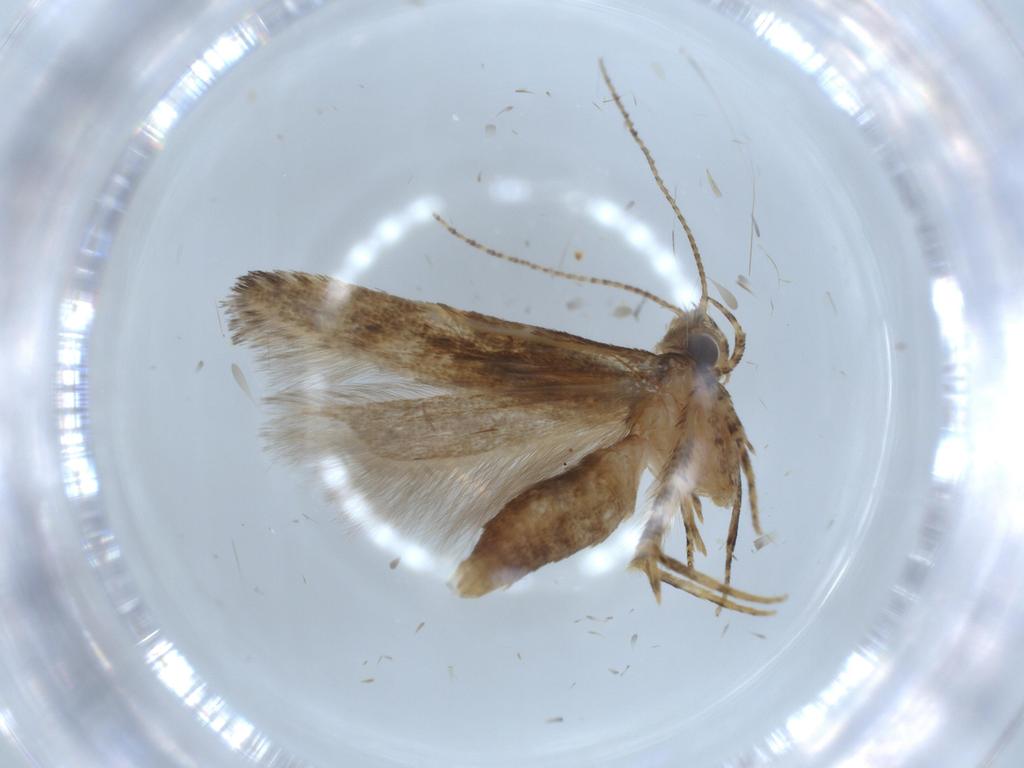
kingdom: Animalia
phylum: Arthropoda
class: Insecta
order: Lepidoptera
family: Gelechiidae
